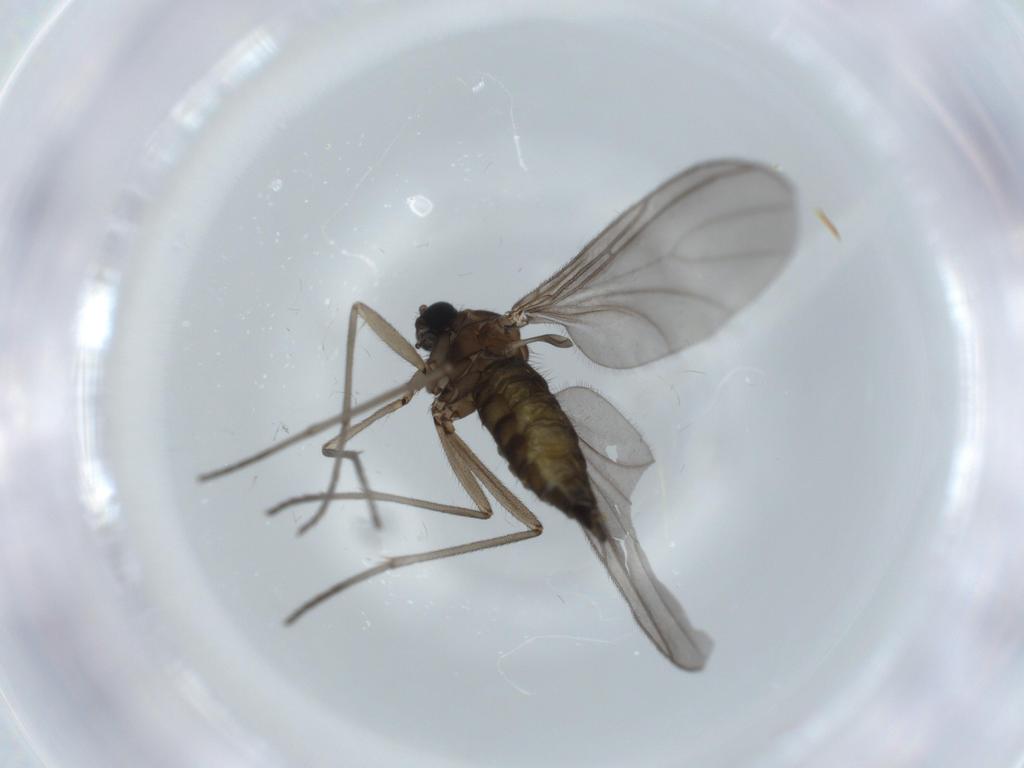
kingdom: Animalia
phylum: Arthropoda
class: Insecta
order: Diptera
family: Sciaridae
